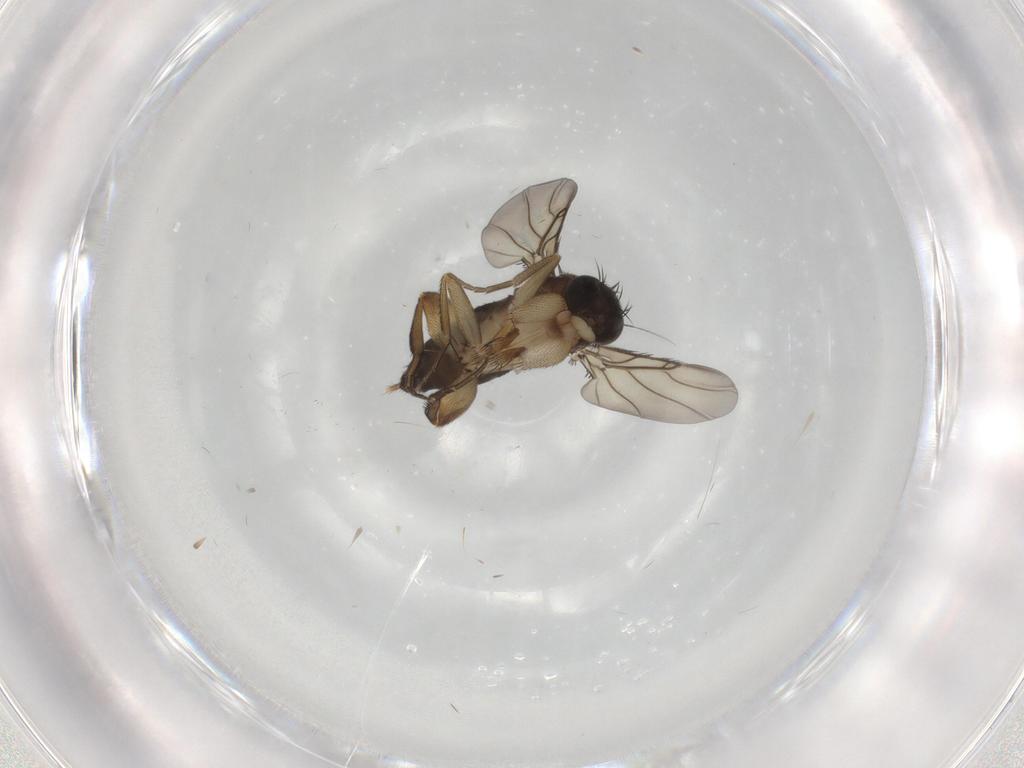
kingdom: Animalia
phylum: Arthropoda
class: Insecta
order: Diptera
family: Phoridae
